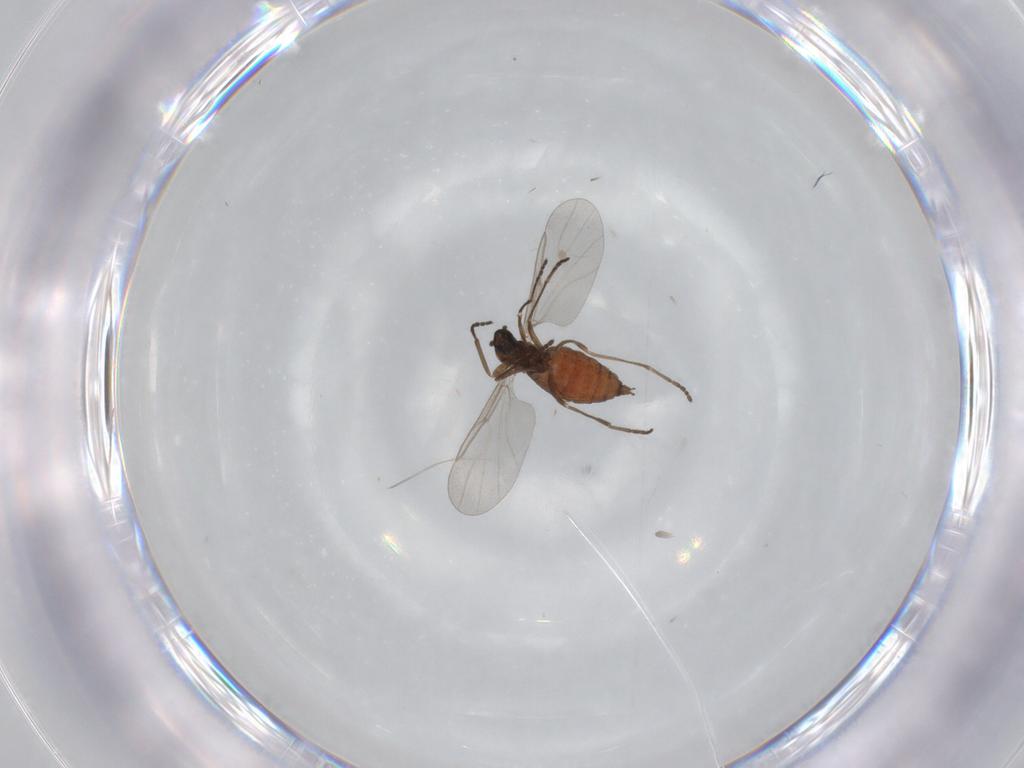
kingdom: Animalia
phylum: Arthropoda
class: Insecta
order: Diptera
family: Cecidomyiidae
